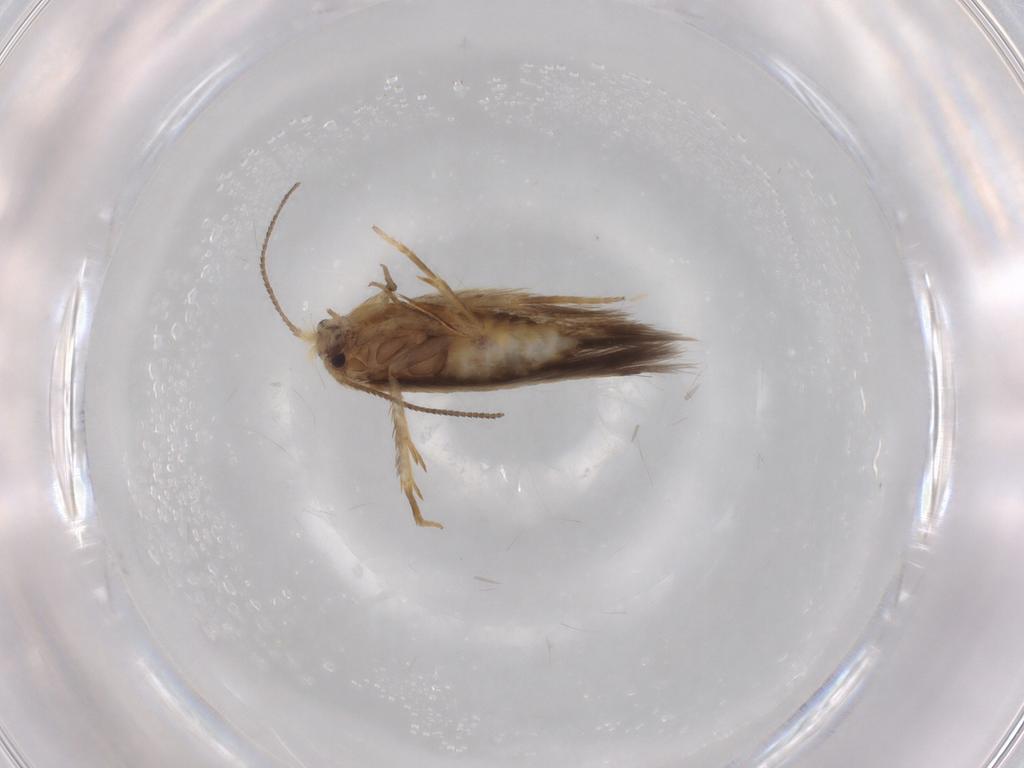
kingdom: Animalia
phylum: Arthropoda
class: Insecta
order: Lepidoptera
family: Nepticulidae
